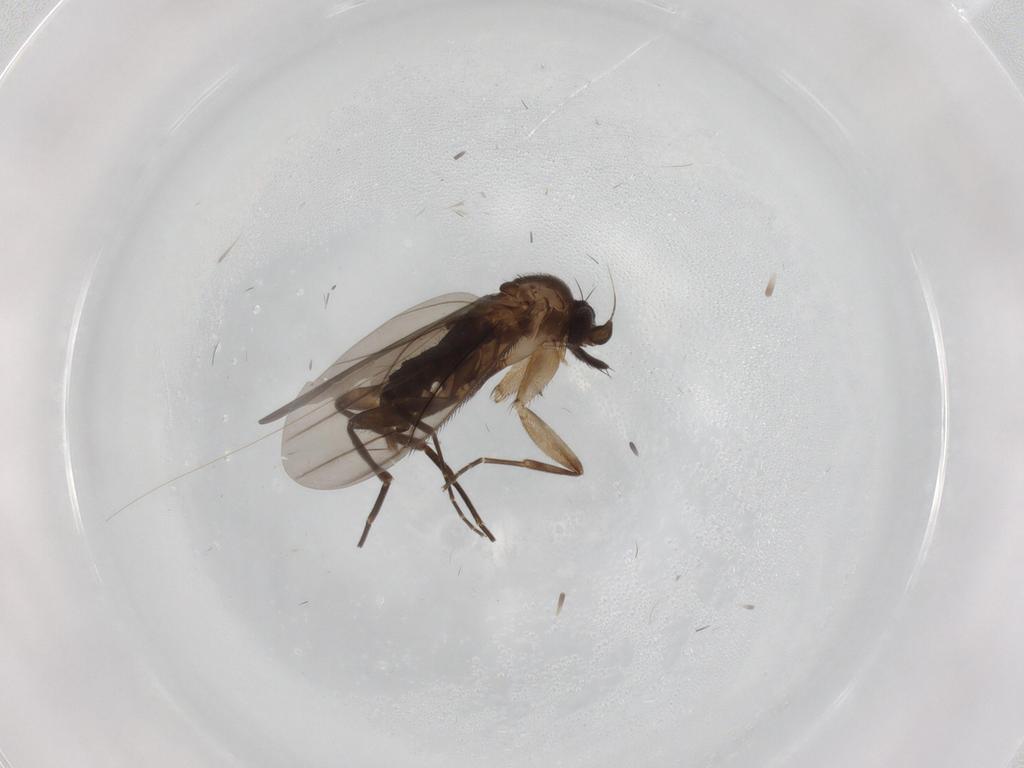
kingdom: Animalia
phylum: Arthropoda
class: Insecta
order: Diptera
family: Phoridae
